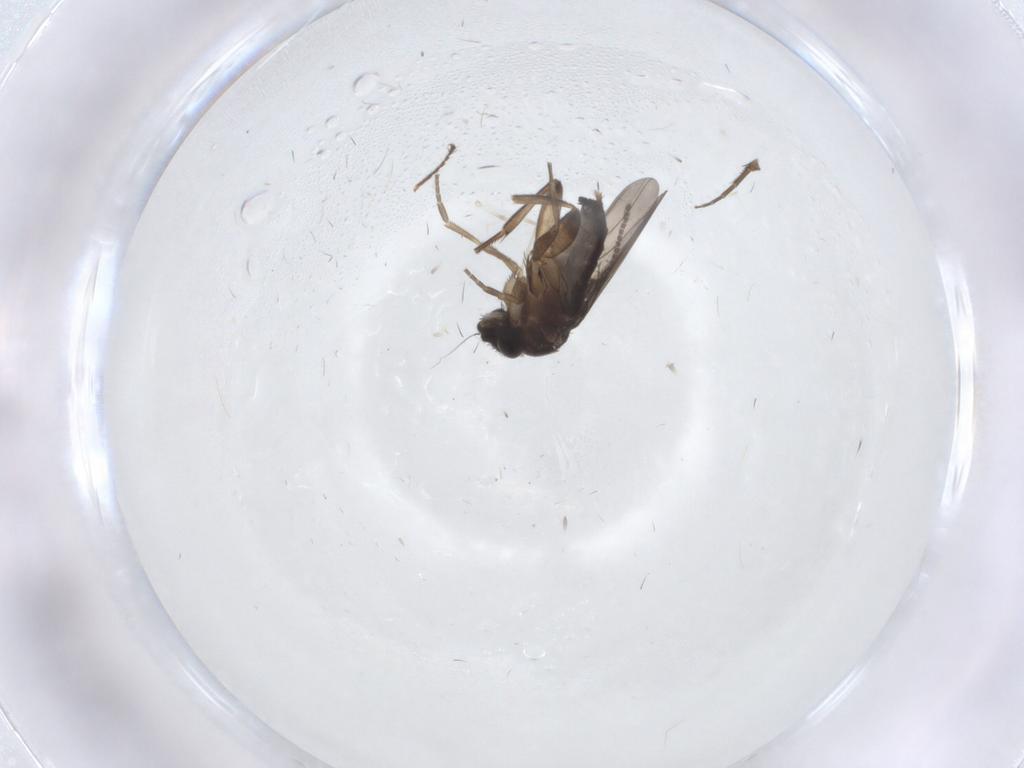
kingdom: Animalia
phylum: Arthropoda
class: Insecta
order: Diptera
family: Phoridae
